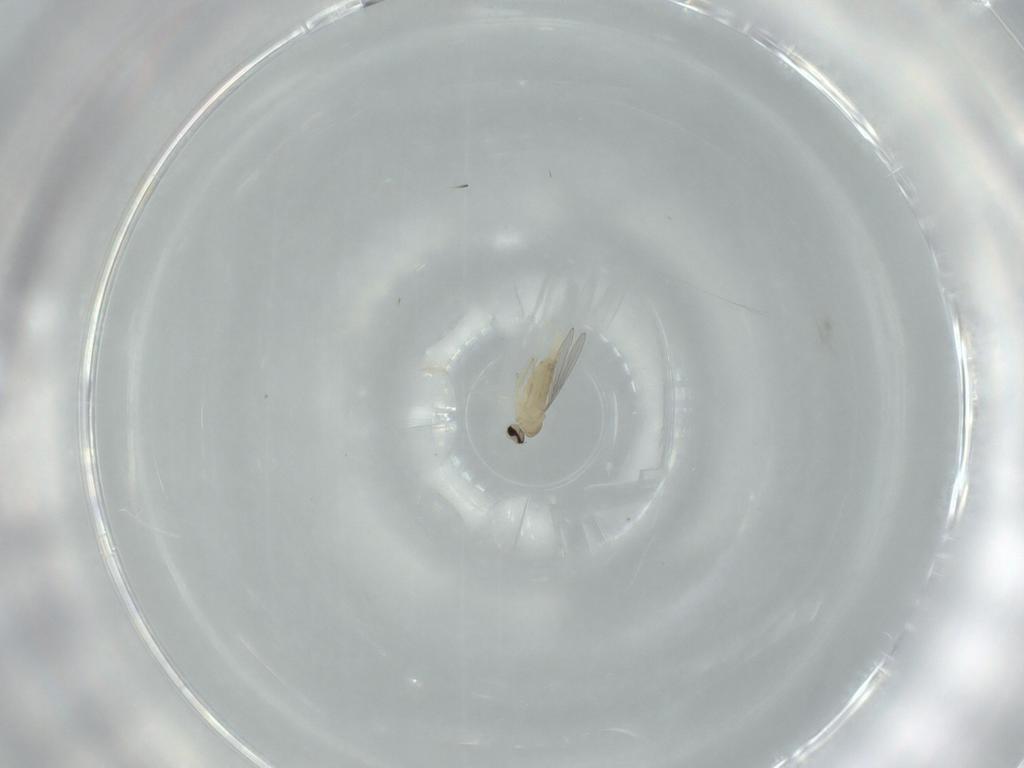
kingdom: Animalia
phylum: Arthropoda
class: Insecta
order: Diptera
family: Cecidomyiidae
